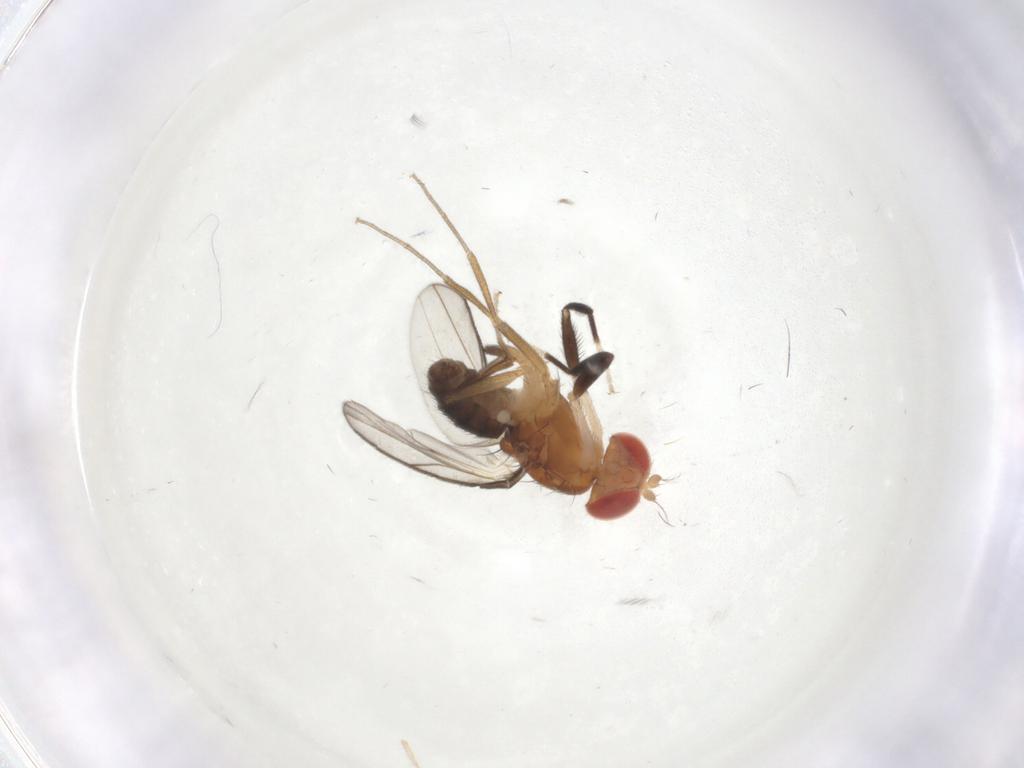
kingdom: Animalia
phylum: Arthropoda
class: Insecta
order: Diptera
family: Drosophilidae
